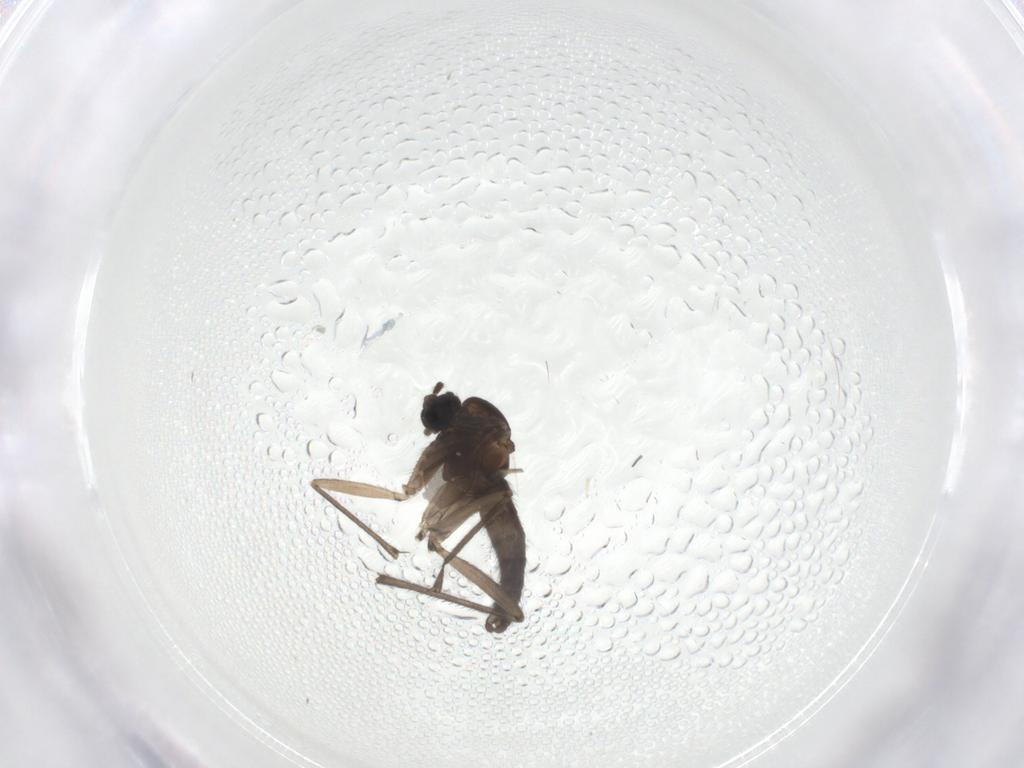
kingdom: Animalia
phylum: Arthropoda
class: Insecta
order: Diptera
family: Sciaridae
